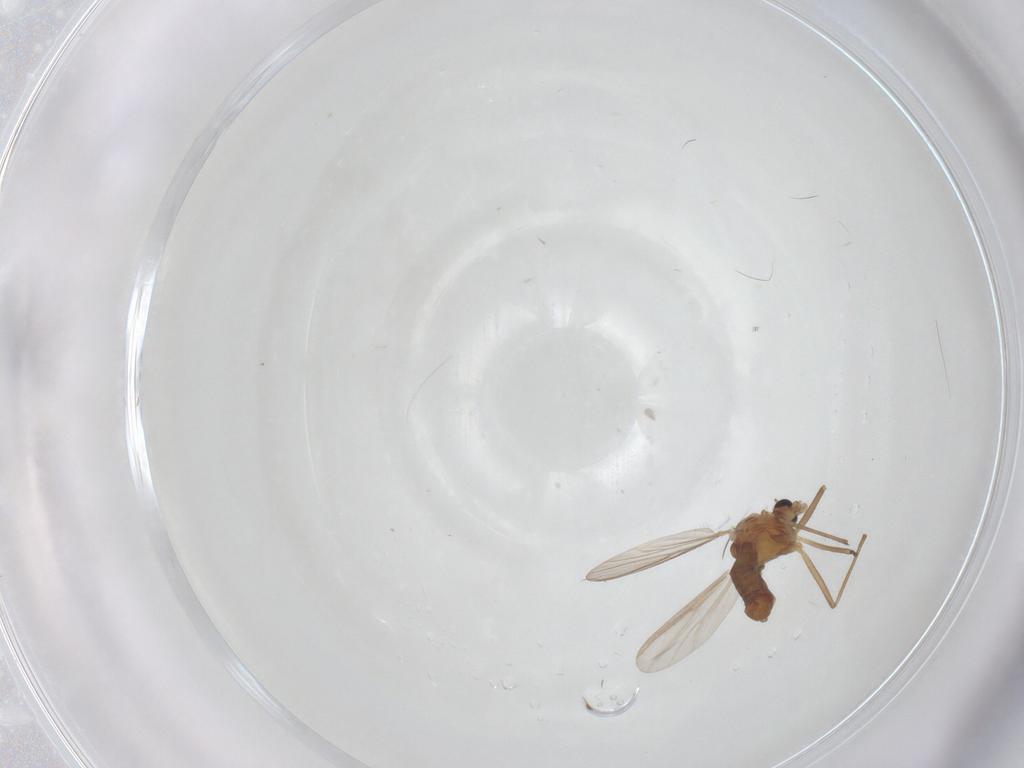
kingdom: Animalia
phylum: Arthropoda
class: Insecta
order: Diptera
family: Chironomidae
